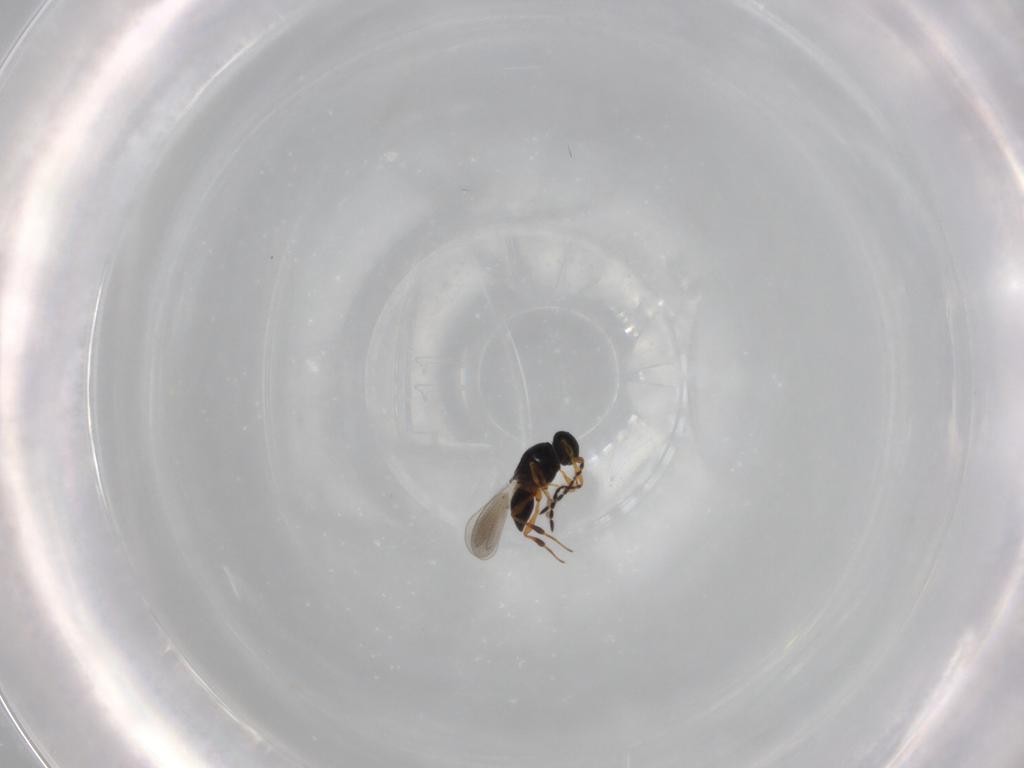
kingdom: Animalia
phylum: Arthropoda
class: Insecta
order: Hymenoptera
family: Platygastridae
